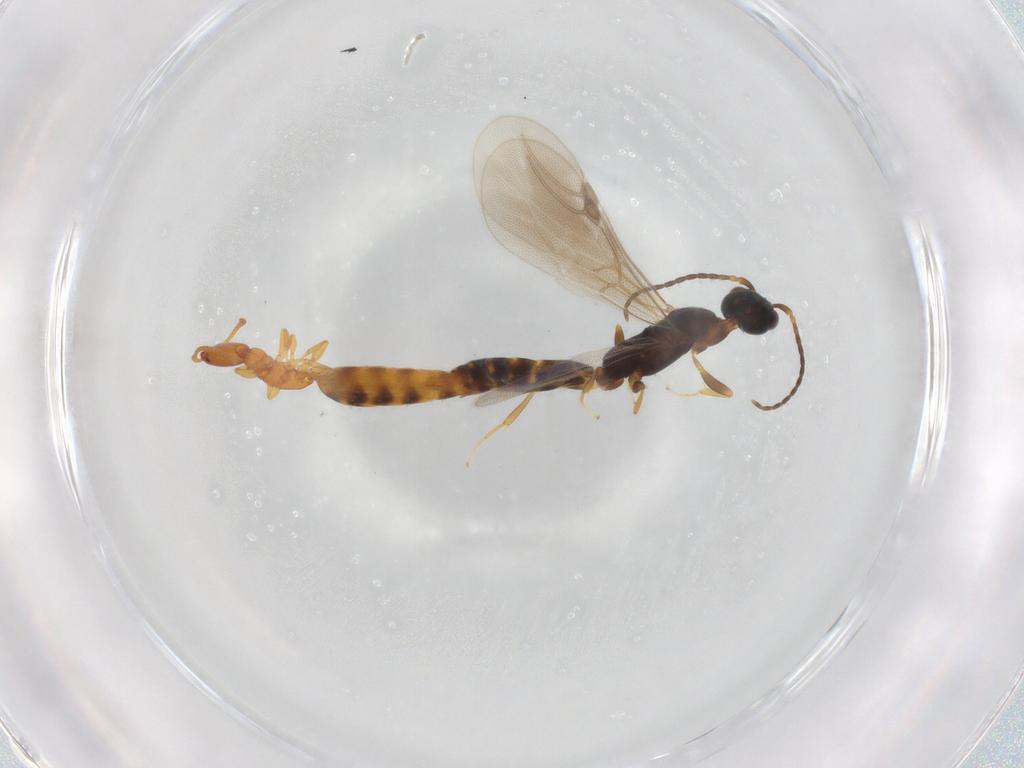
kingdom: Animalia
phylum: Arthropoda
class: Insecta
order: Hymenoptera
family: Bethylidae
